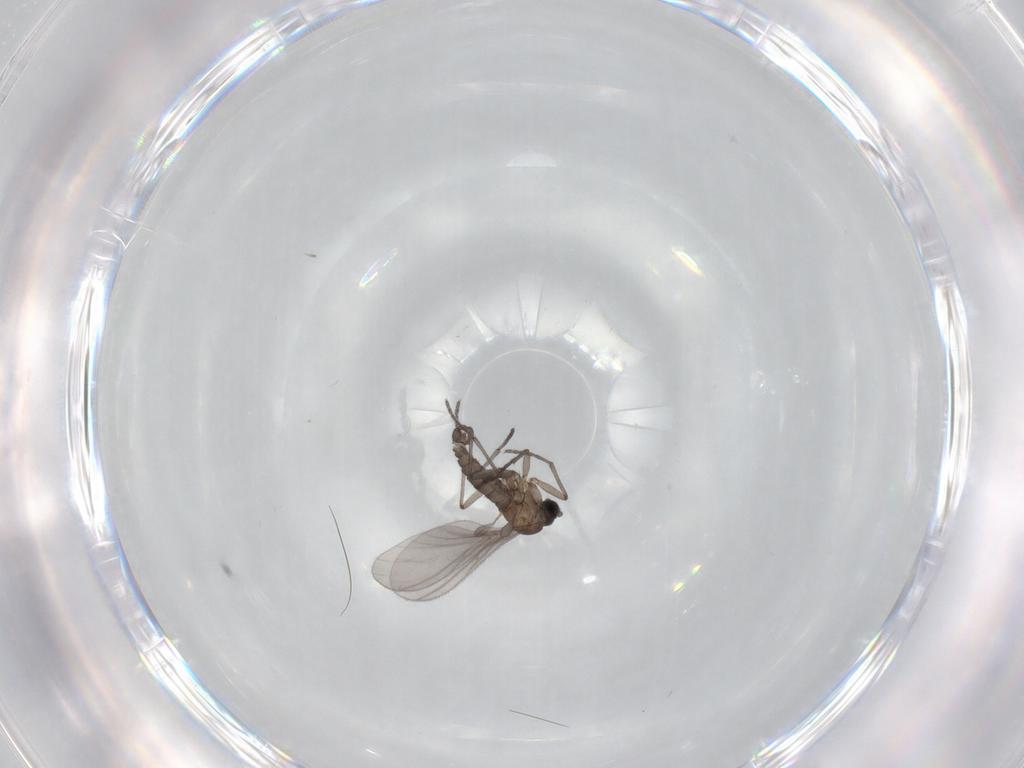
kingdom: Animalia
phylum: Arthropoda
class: Insecta
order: Diptera
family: Sciaridae
